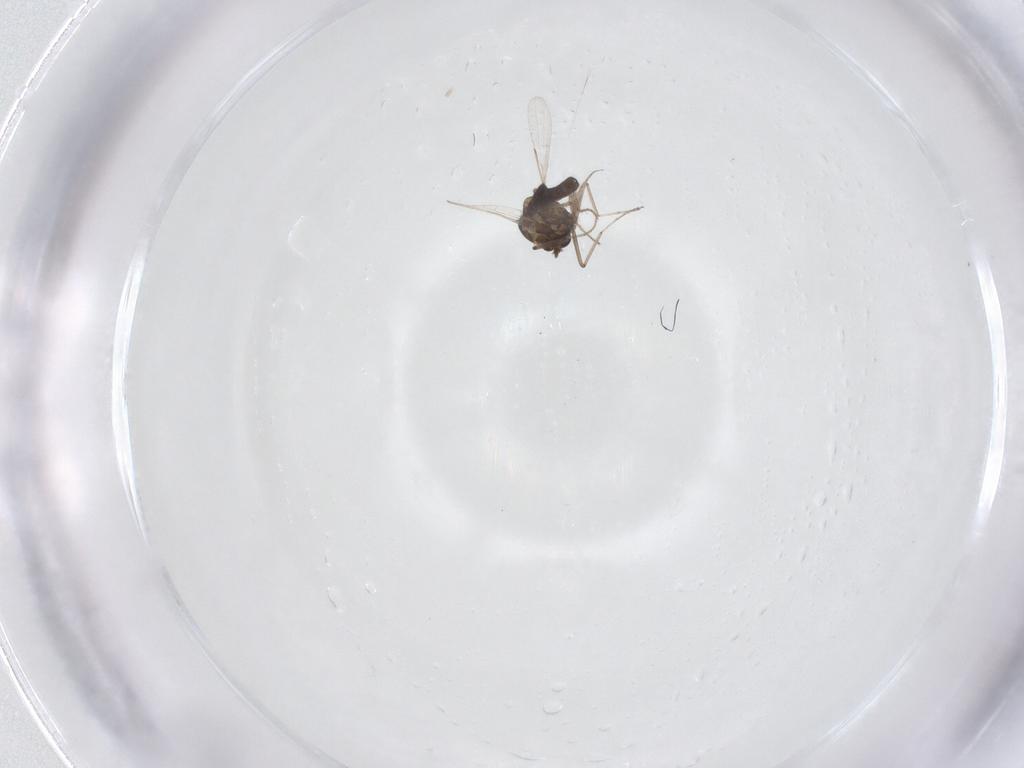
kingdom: Animalia
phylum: Arthropoda
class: Insecta
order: Diptera
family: Ceratopogonidae
